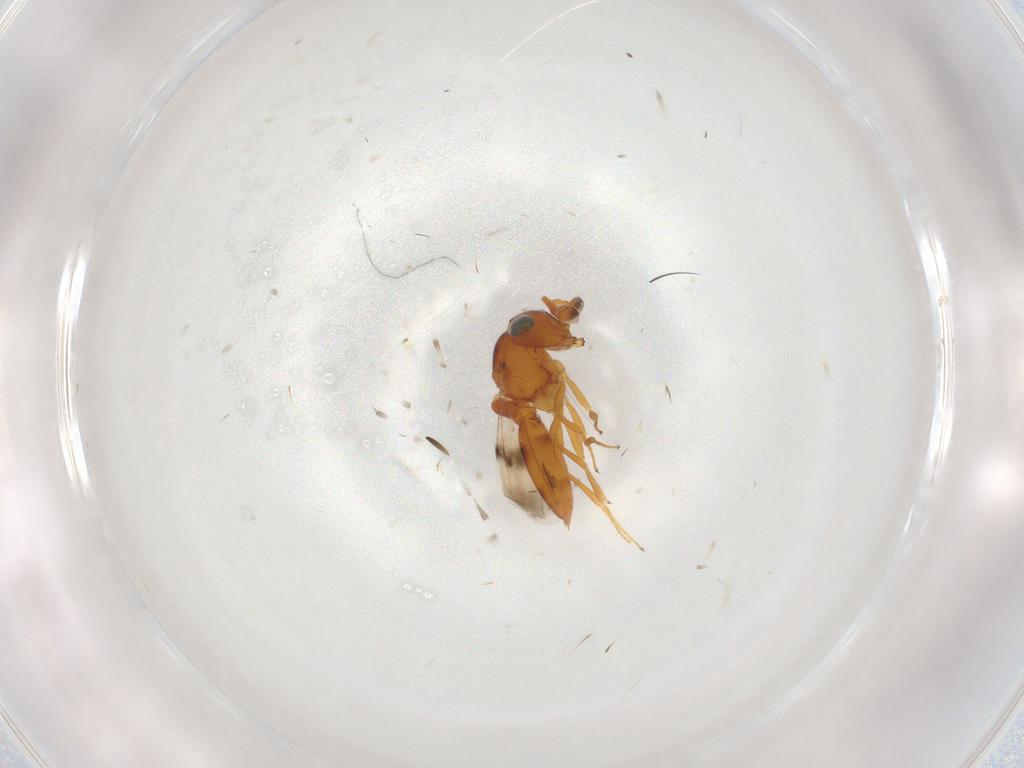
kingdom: Animalia
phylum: Arthropoda
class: Insecta
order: Hymenoptera
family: Scelionidae
